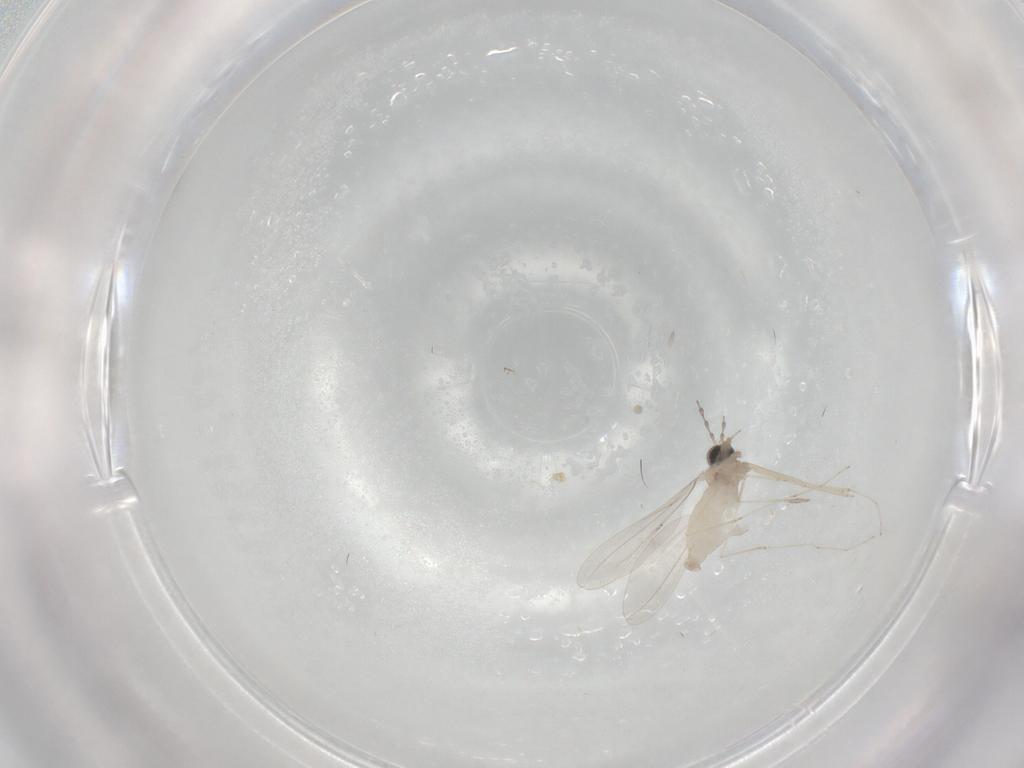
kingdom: Animalia
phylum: Arthropoda
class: Insecta
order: Diptera
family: Cecidomyiidae
